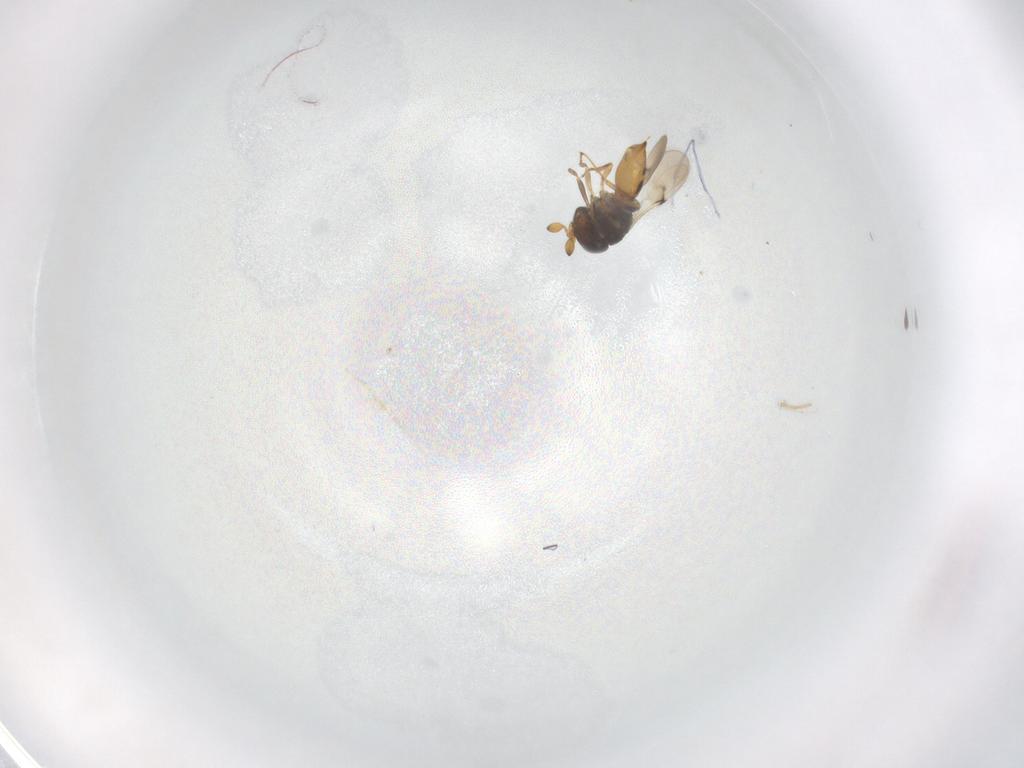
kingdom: Animalia
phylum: Arthropoda
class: Insecta
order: Hymenoptera
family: Scelionidae
